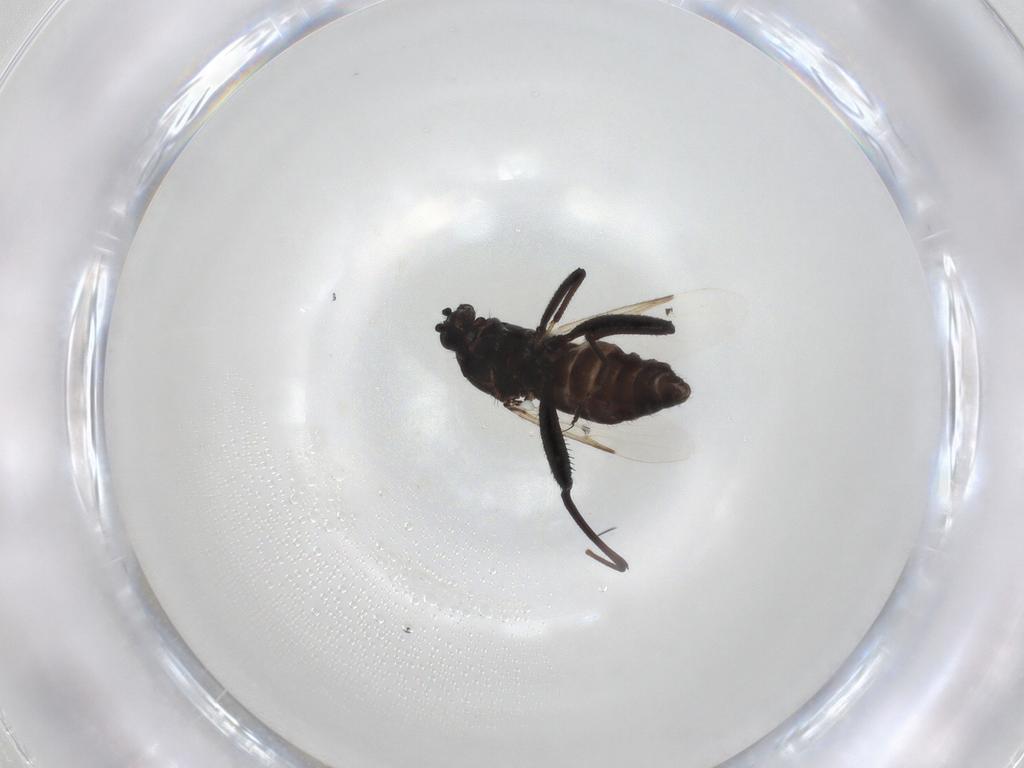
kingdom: Animalia
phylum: Arthropoda
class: Insecta
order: Diptera
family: Ceratopogonidae
